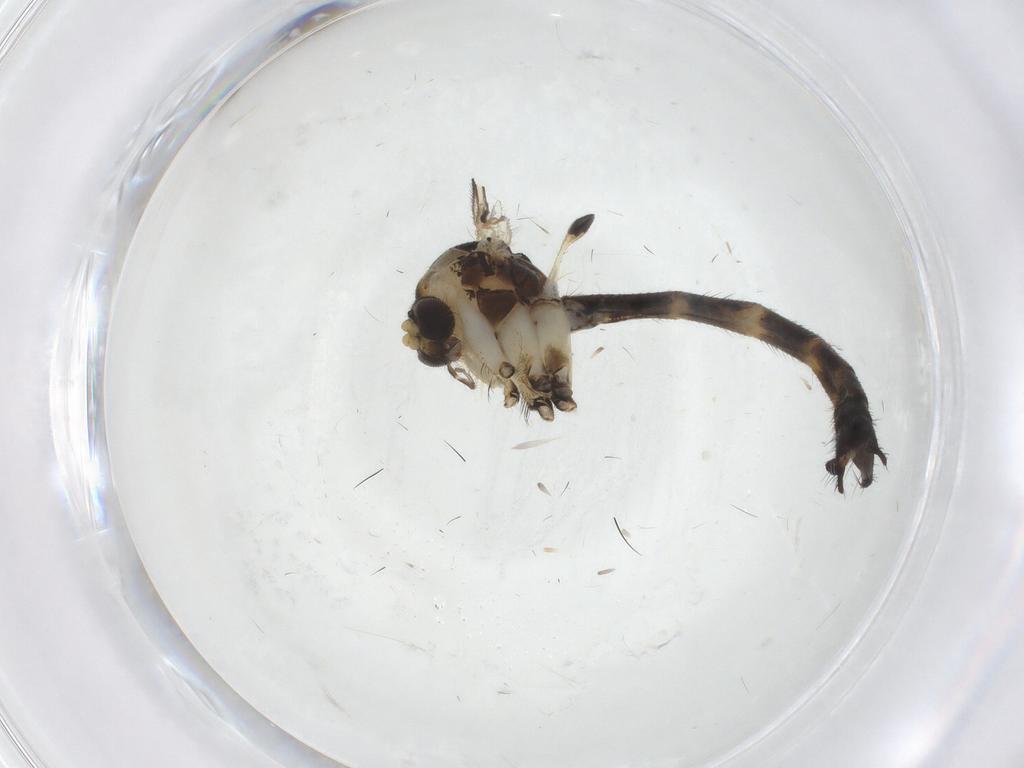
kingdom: Animalia
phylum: Arthropoda
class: Insecta
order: Diptera
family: Mycetophilidae
